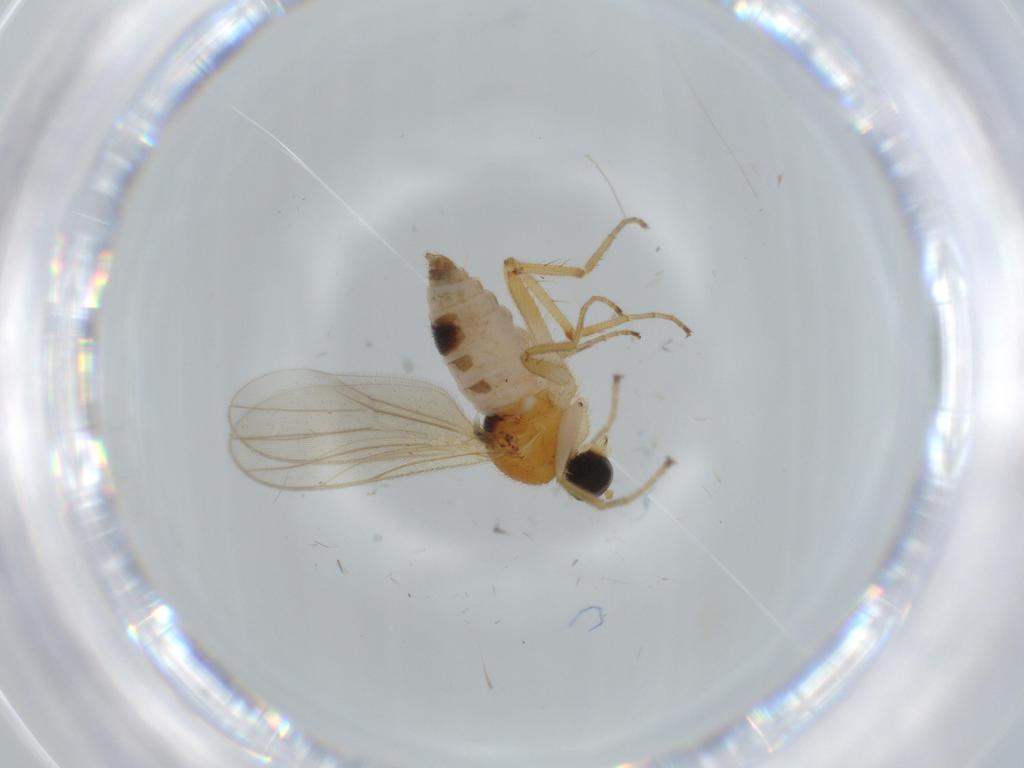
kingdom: Animalia
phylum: Arthropoda
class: Insecta
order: Diptera
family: Hybotidae
